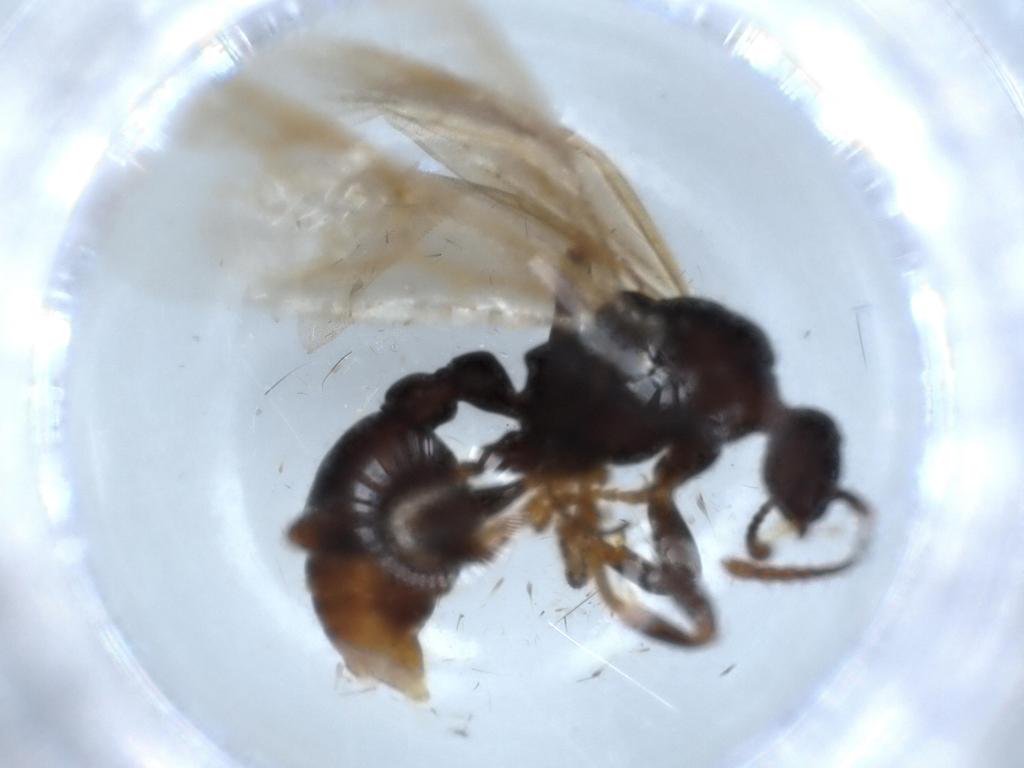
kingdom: Animalia
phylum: Arthropoda
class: Insecta
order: Hymenoptera
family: Formicidae
